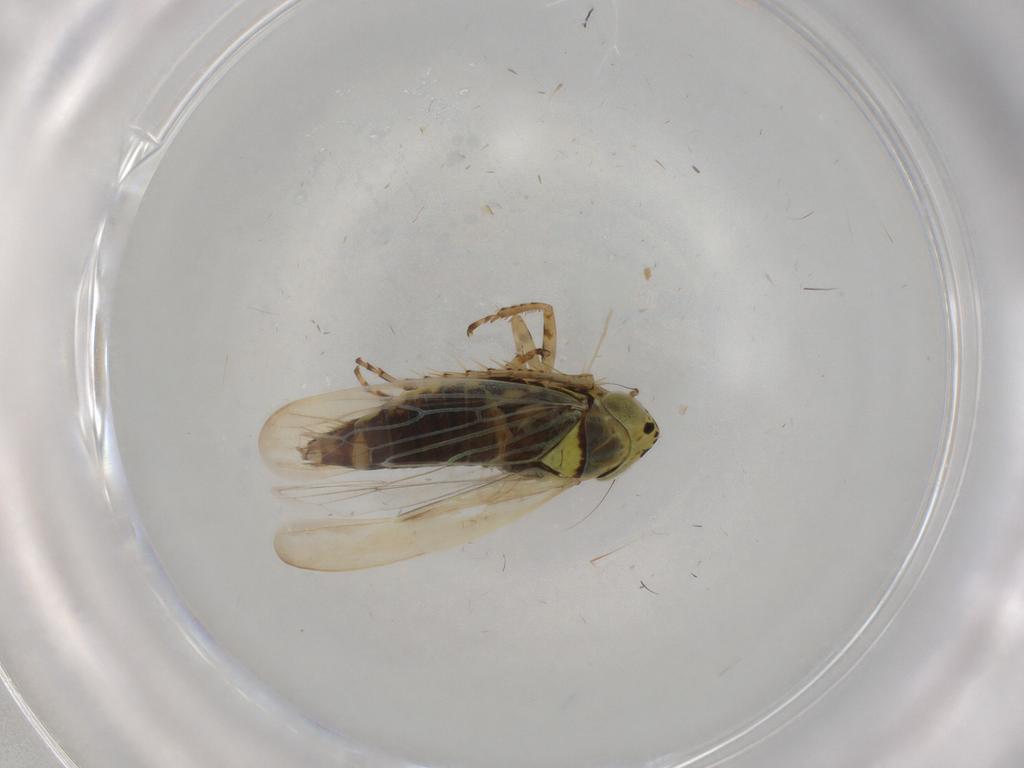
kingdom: Animalia
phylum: Arthropoda
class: Insecta
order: Hemiptera
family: Cicadellidae
